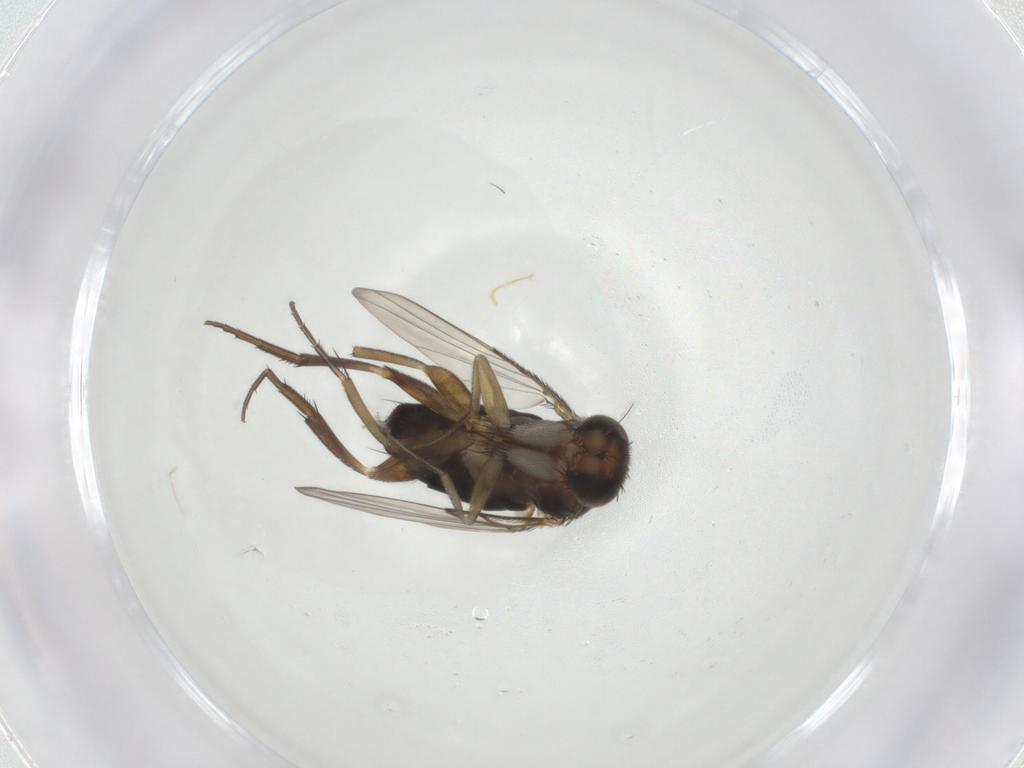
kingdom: Animalia
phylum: Arthropoda
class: Insecta
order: Diptera
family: Phoridae
